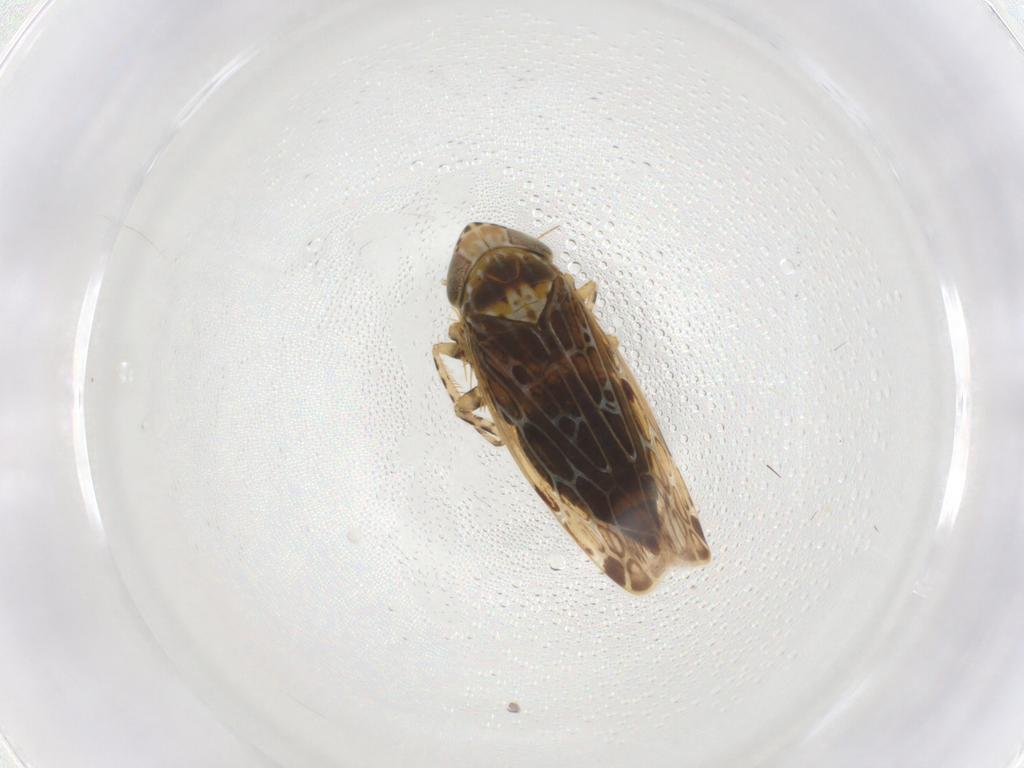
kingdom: Animalia
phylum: Arthropoda
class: Insecta
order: Hemiptera
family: Cicadellidae
